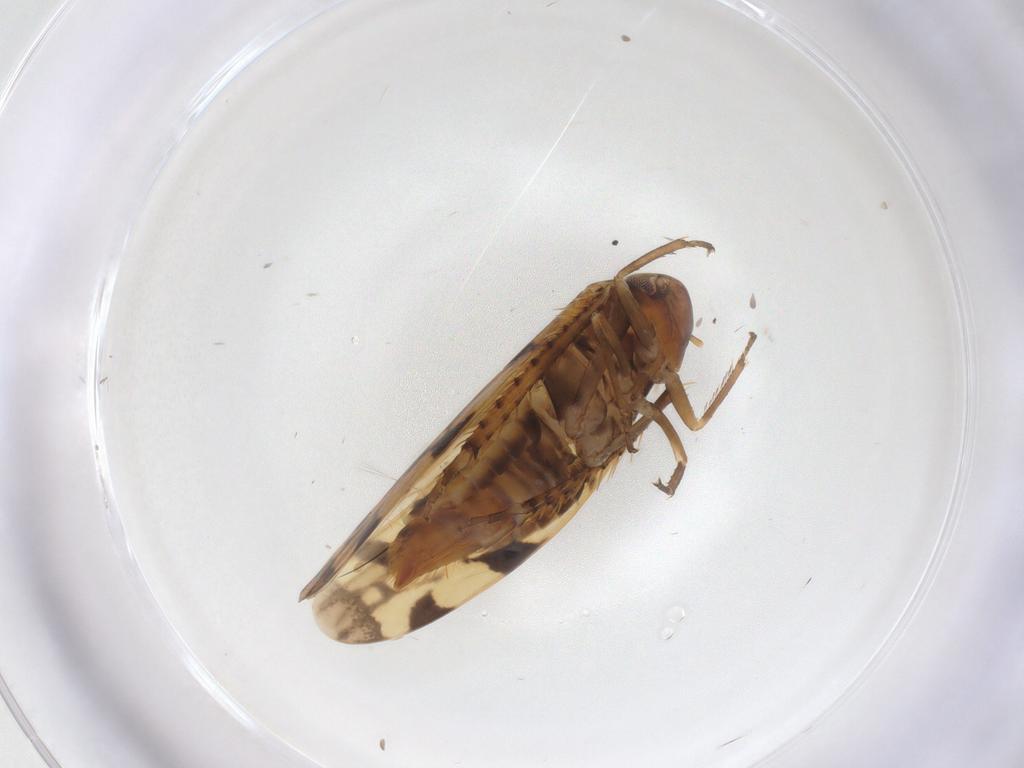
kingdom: Animalia
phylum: Arthropoda
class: Insecta
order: Hemiptera
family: Cicadellidae
